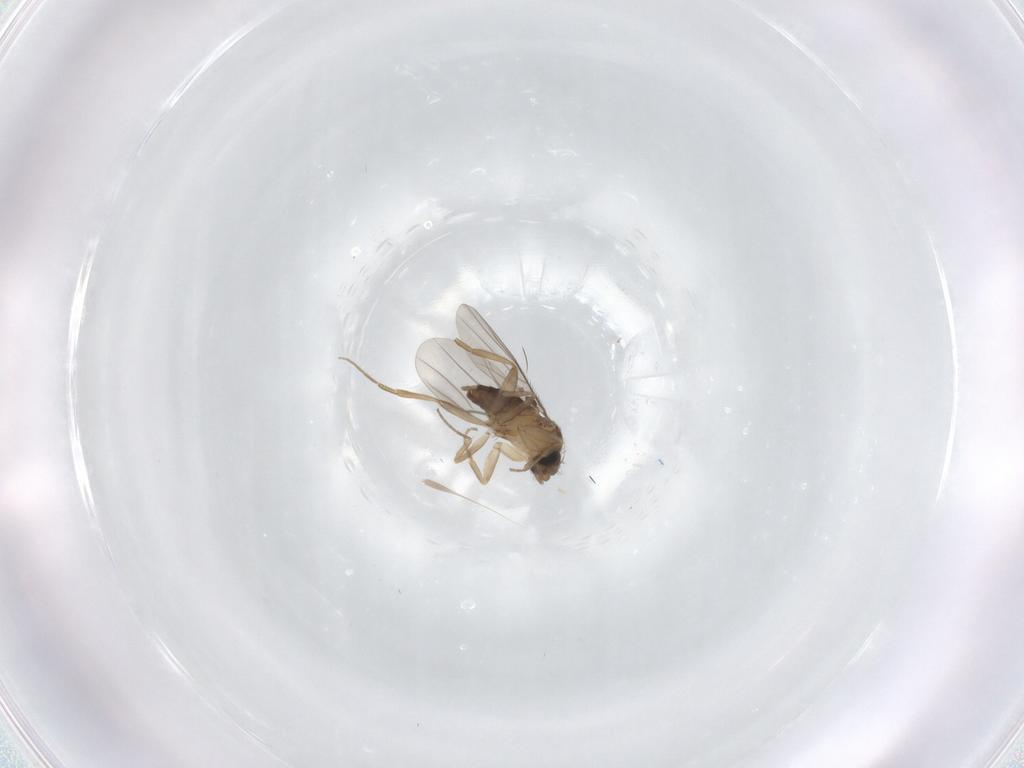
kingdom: Animalia
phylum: Arthropoda
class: Insecta
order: Diptera
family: Phoridae
